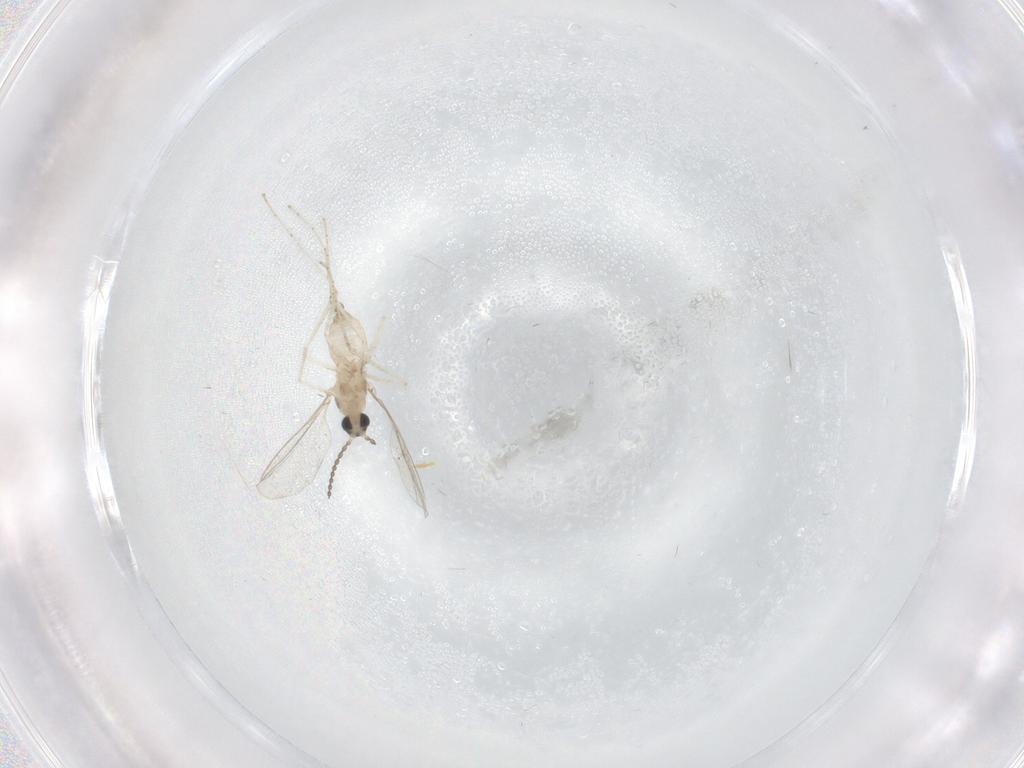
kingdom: Animalia
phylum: Arthropoda
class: Insecta
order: Diptera
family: Cecidomyiidae
